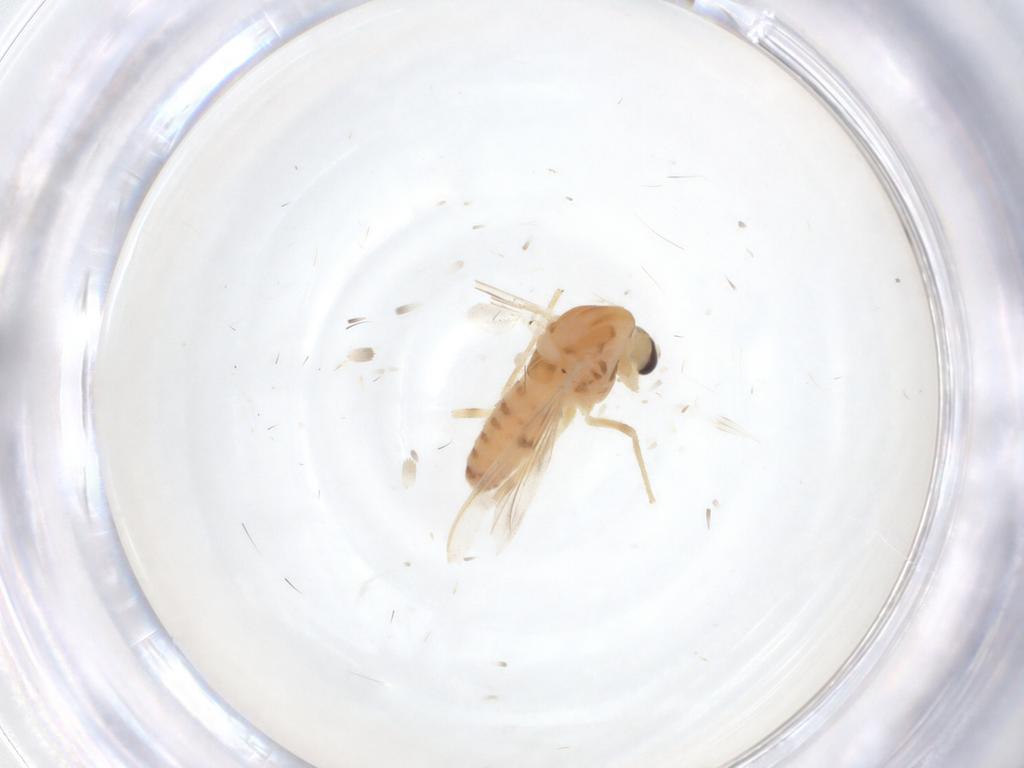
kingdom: Animalia
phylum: Arthropoda
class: Insecta
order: Diptera
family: Chironomidae
